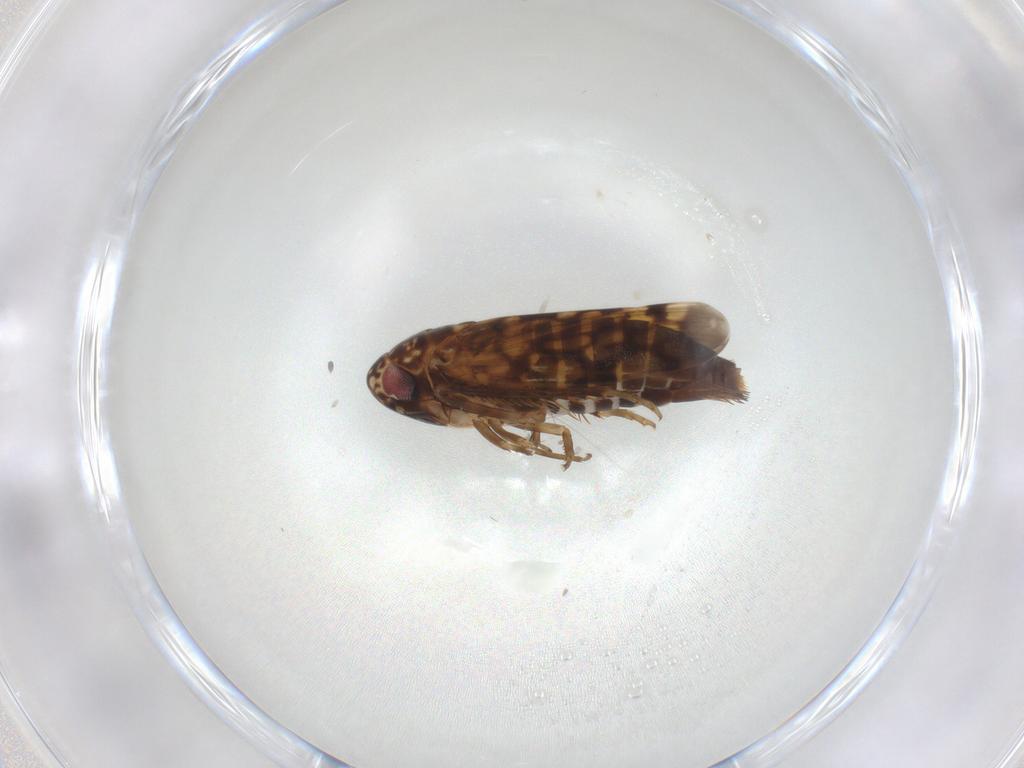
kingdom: Animalia
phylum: Arthropoda
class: Insecta
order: Hemiptera
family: Cicadellidae
